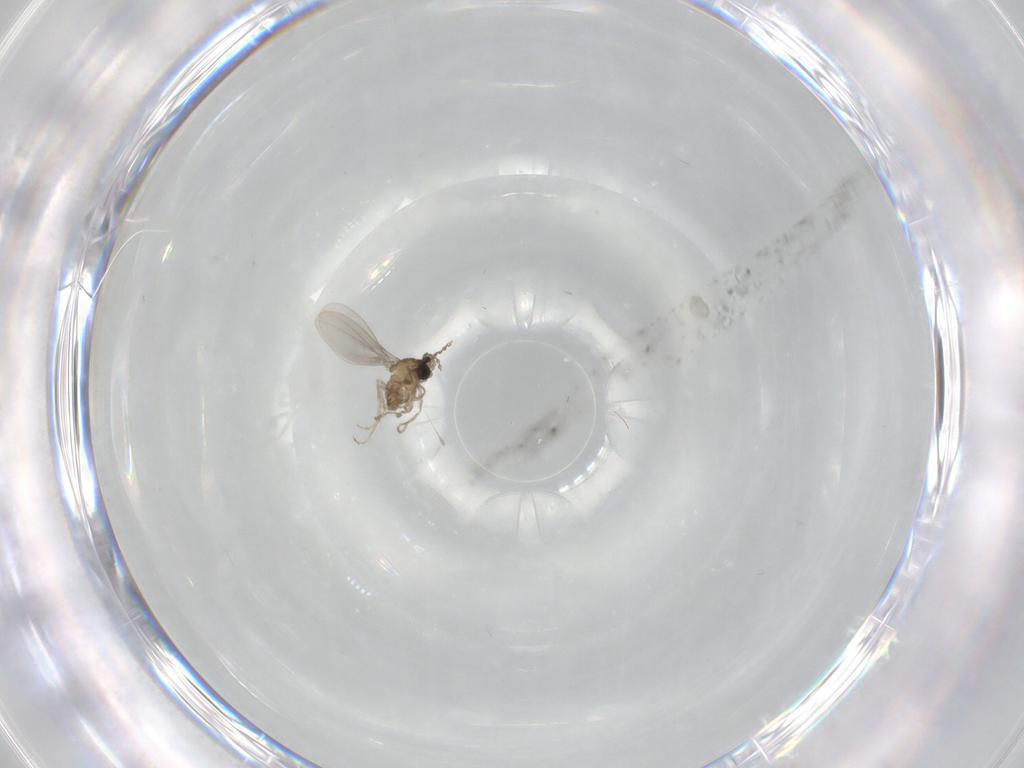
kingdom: Animalia
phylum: Arthropoda
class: Insecta
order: Diptera
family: Cecidomyiidae
